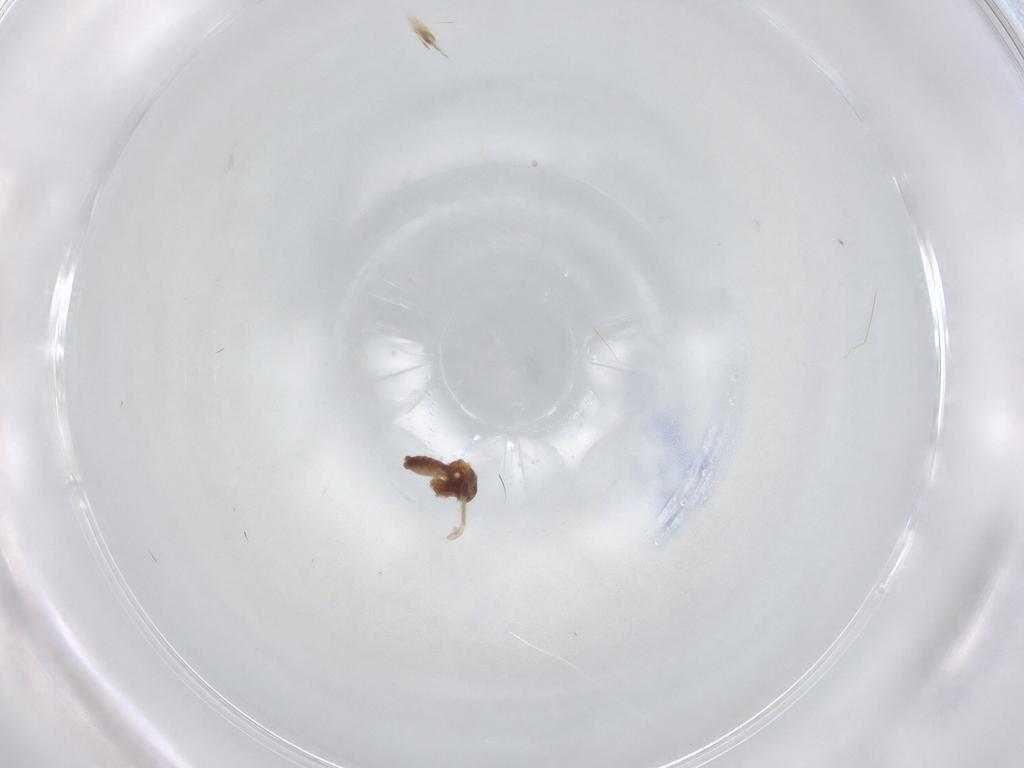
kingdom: Animalia
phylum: Arthropoda
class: Insecta
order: Diptera
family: Ceratopogonidae
